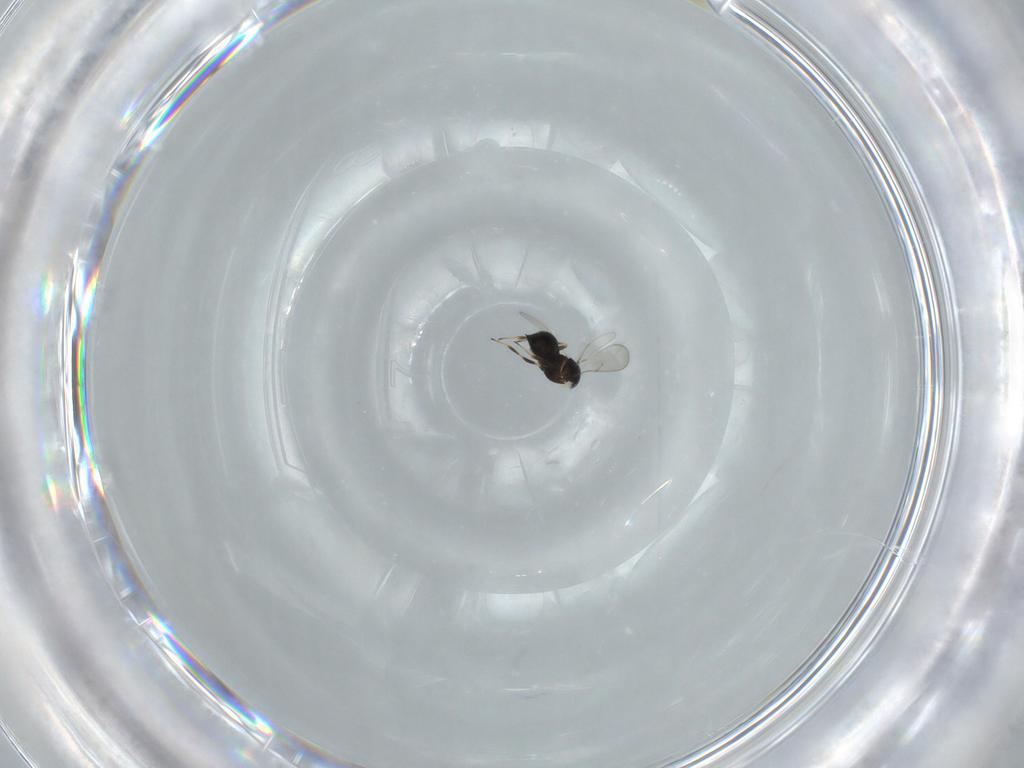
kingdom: Animalia
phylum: Arthropoda
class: Insecta
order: Hymenoptera
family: Scelionidae
